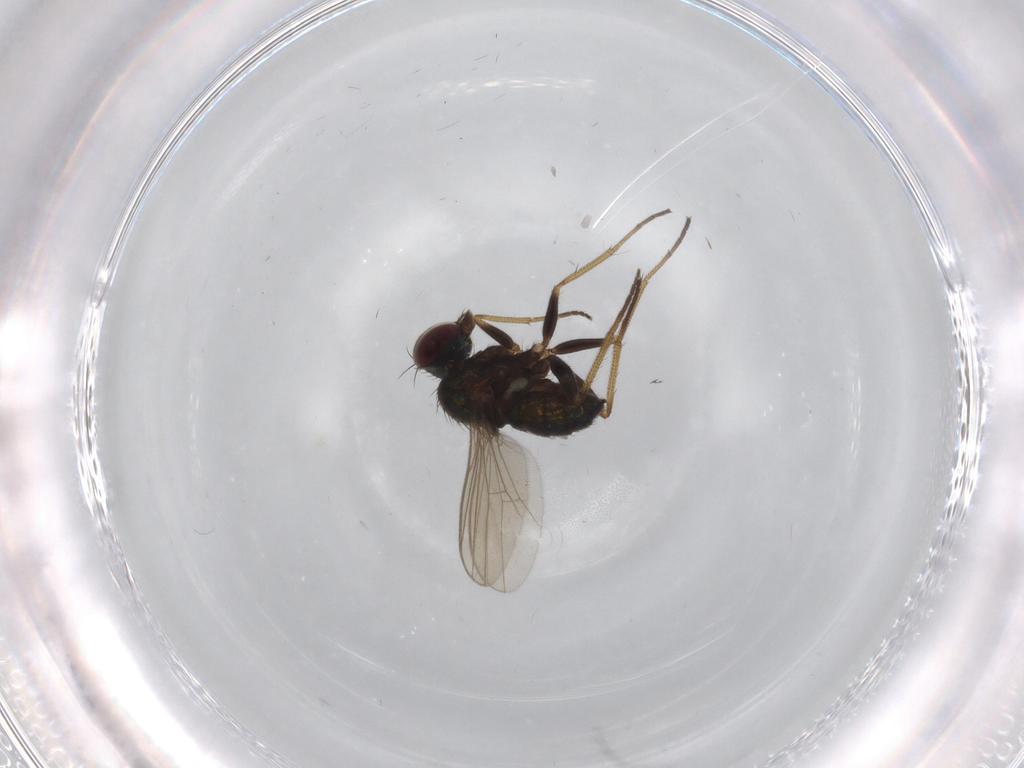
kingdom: Animalia
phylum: Arthropoda
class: Insecta
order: Diptera
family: Dolichopodidae
